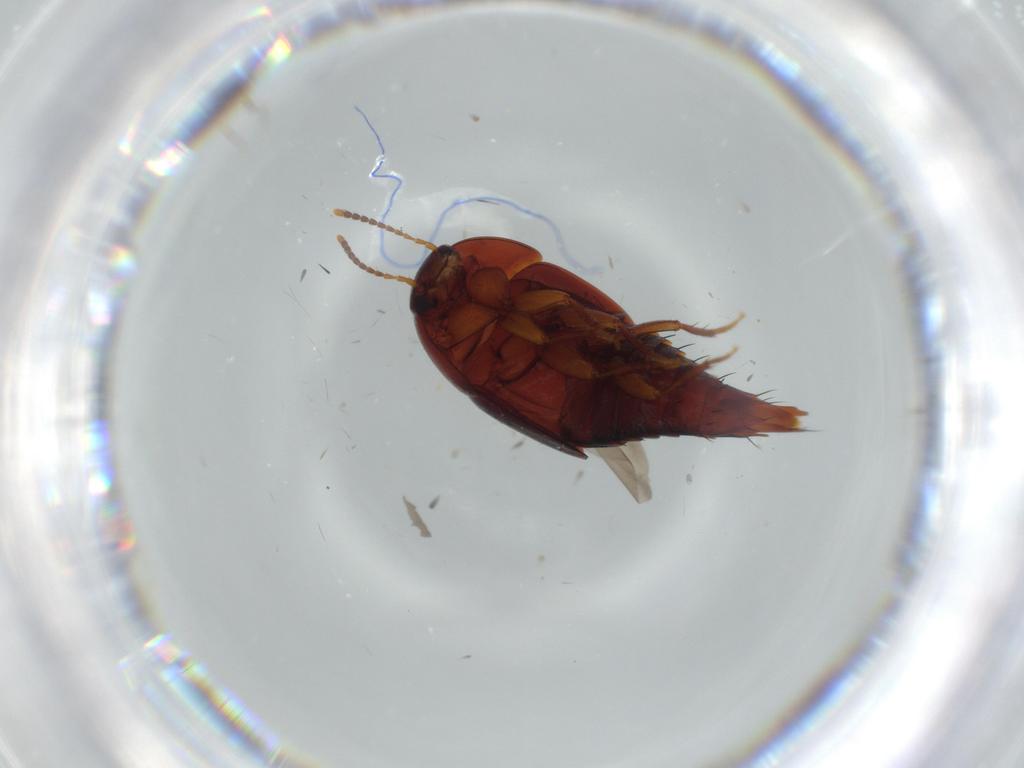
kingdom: Animalia
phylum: Arthropoda
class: Insecta
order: Coleoptera
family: Staphylinidae
